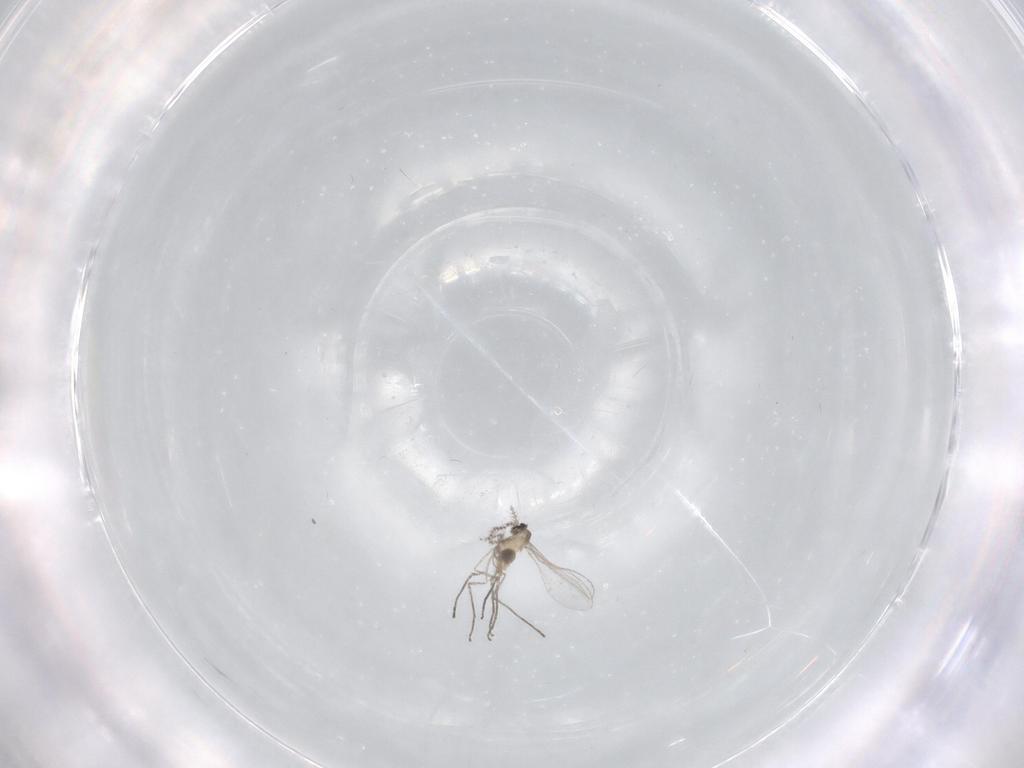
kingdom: Animalia
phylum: Arthropoda
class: Insecta
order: Diptera
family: Cecidomyiidae
